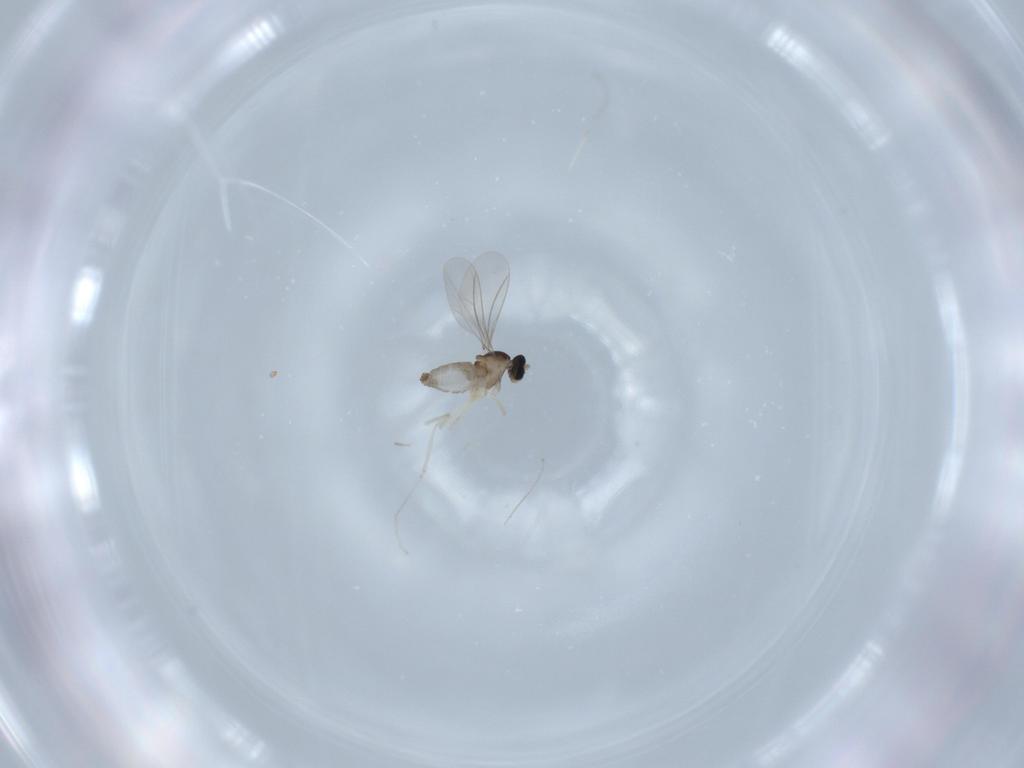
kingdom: Animalia
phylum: Arthropoda
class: Insecta
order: Diptera
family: Cecidomyiidae
